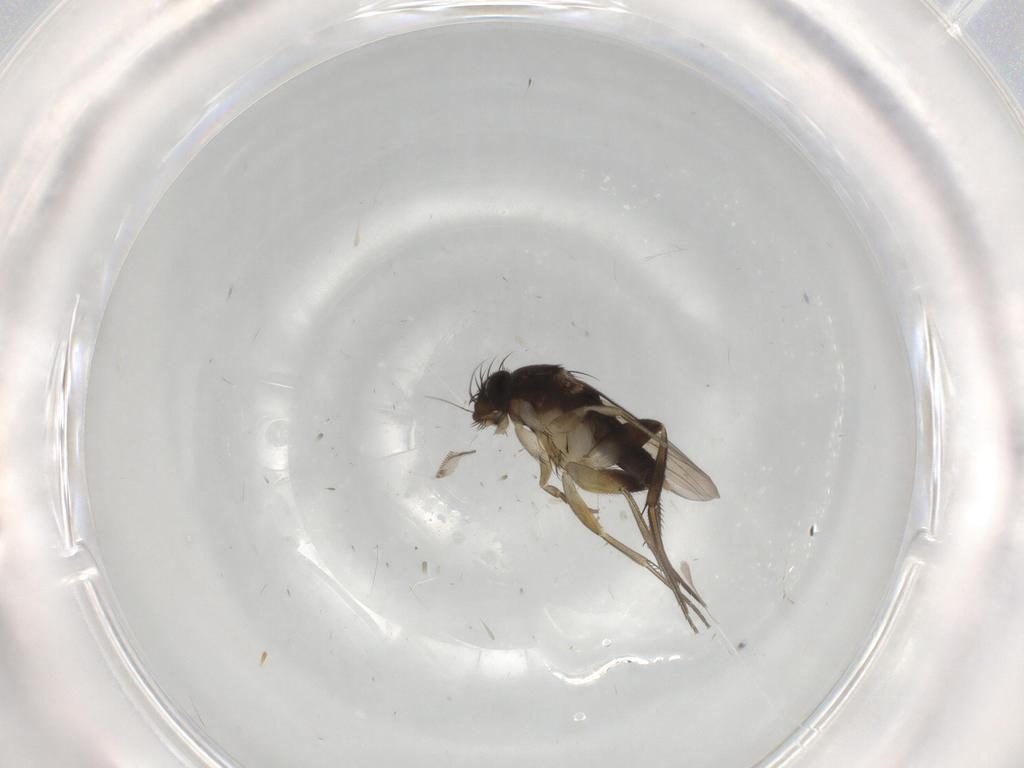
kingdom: Animalia
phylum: Arthropoda
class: Insecta
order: Diptera
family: Phoridae
